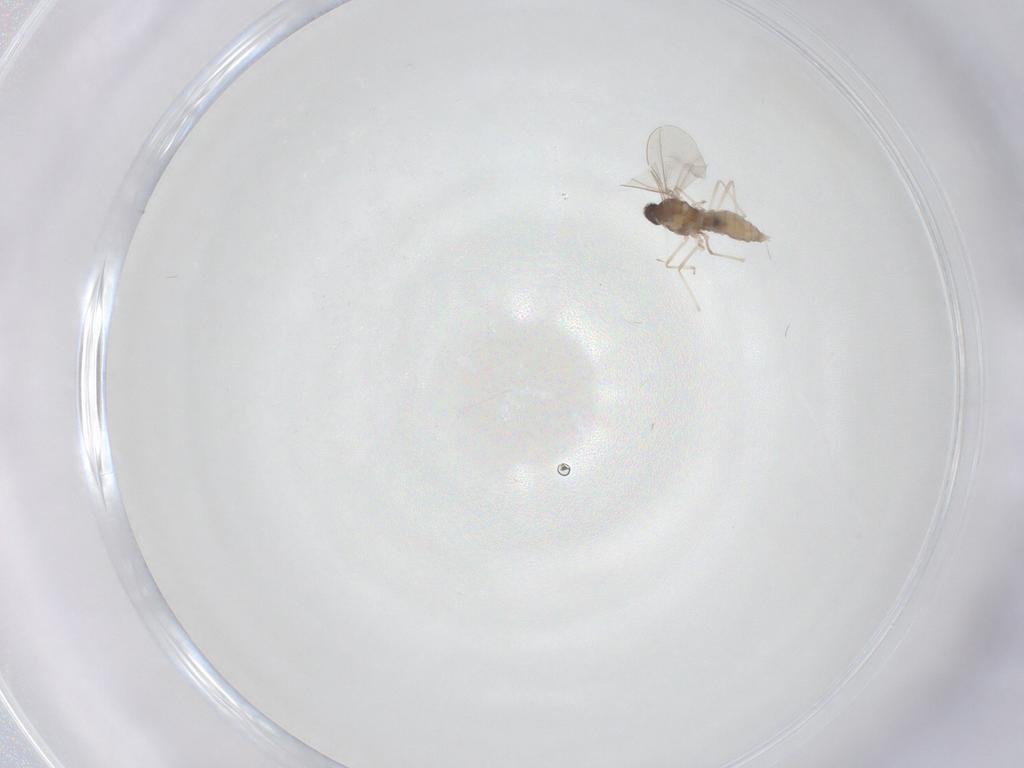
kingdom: Animalia
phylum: Arthropoda
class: Insecta
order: Diptera
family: Cecidomyiidae
